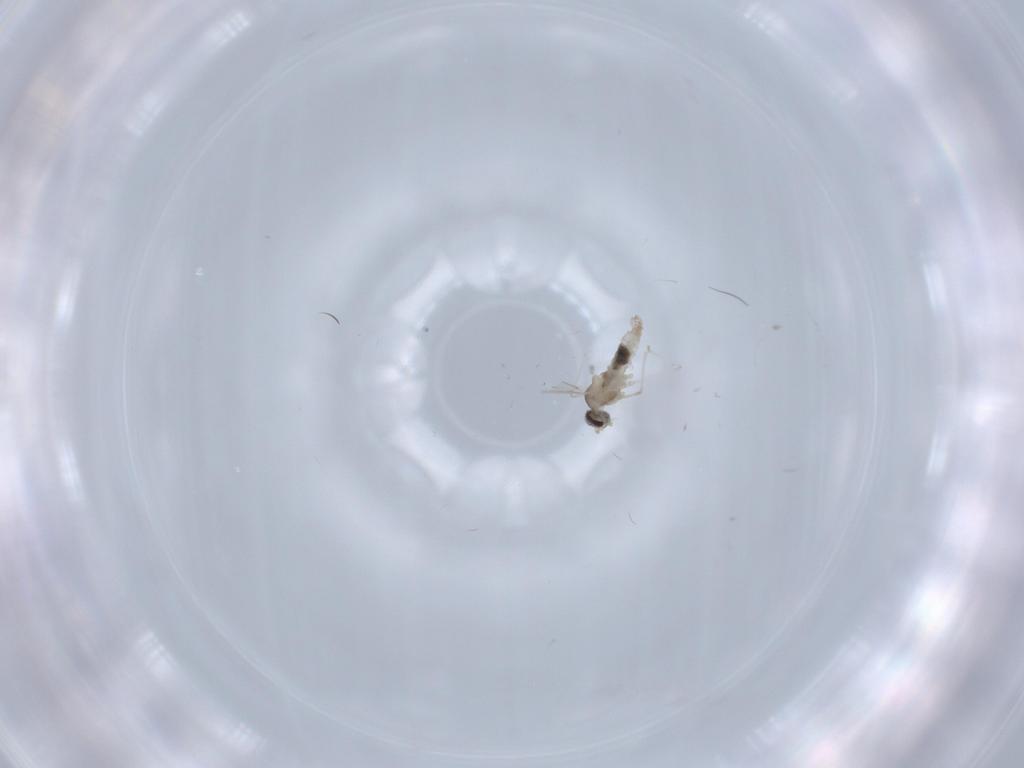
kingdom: Animalia
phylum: Arthropoda
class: Insecta
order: Diptera
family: Cecidomyiidae
